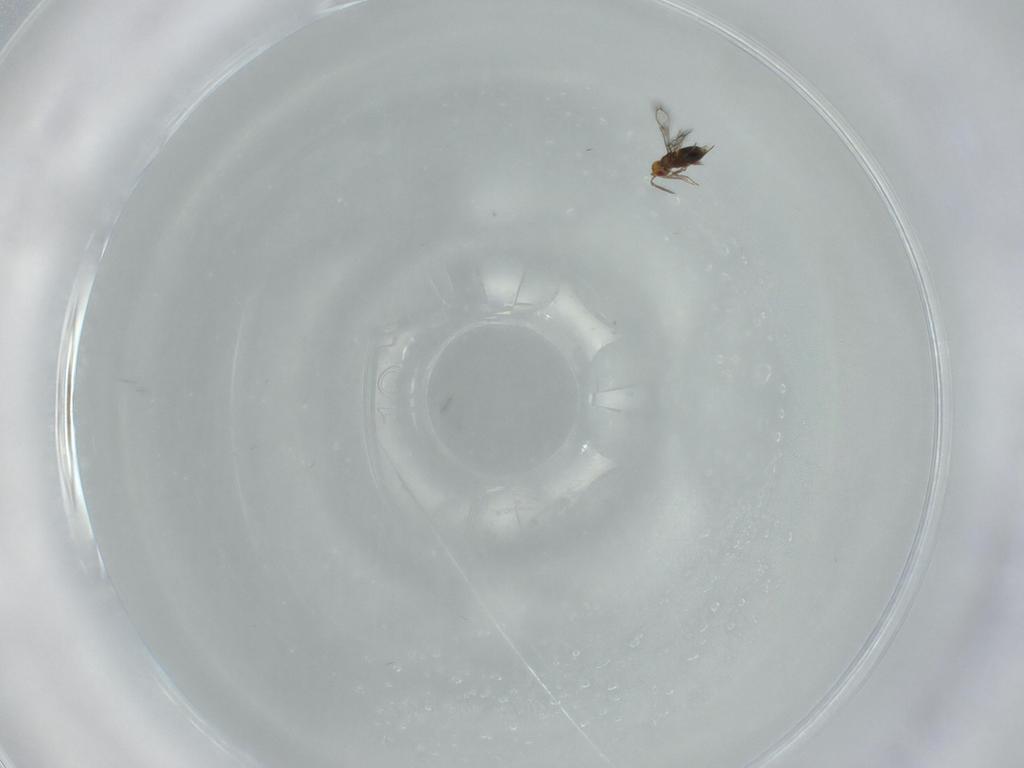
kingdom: Animalia
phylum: Arthropoda
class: Insecta
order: Hymenoptera
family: Trichogrammatidae
